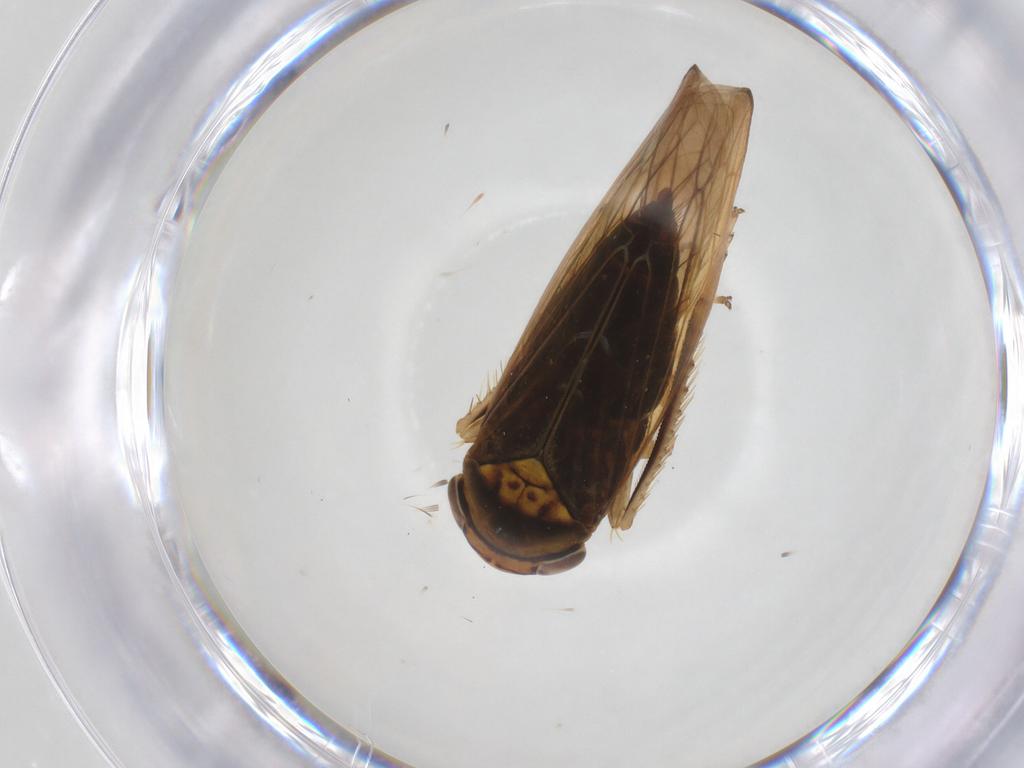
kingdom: Animalia
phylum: Arthropoda
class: Insecta
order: Hemiptera
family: Cicadellidae
